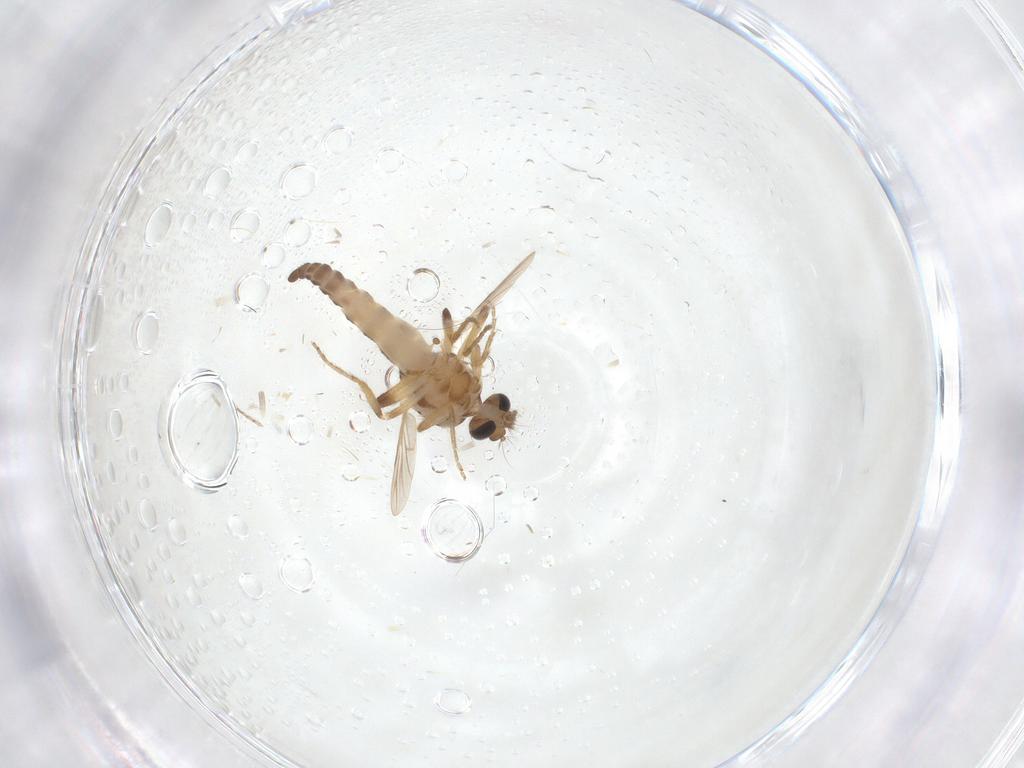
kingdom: Animalia
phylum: Arthropoda
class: Insecta
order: Diptera
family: Ceratopogonidae
